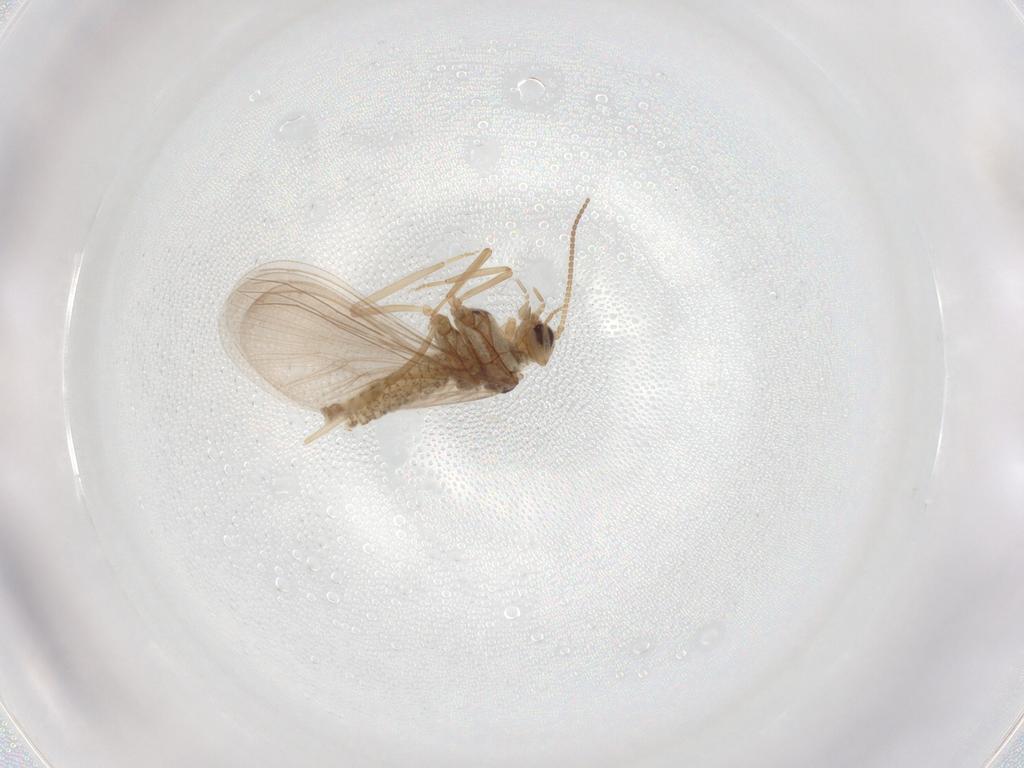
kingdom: Animalia
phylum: Arthropoda
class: Insecta
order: Neuroptera
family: Coniopterygidae
